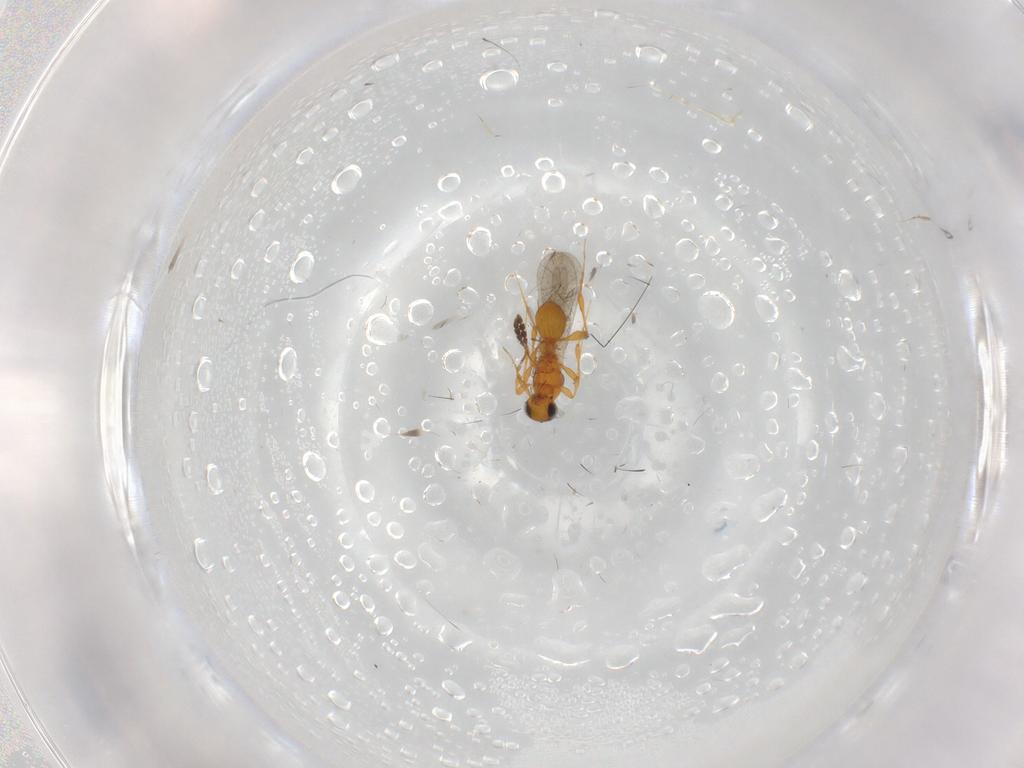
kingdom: Animalia
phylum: Arthropoda
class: Insecta
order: Hymenoptera
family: Platygastridae
